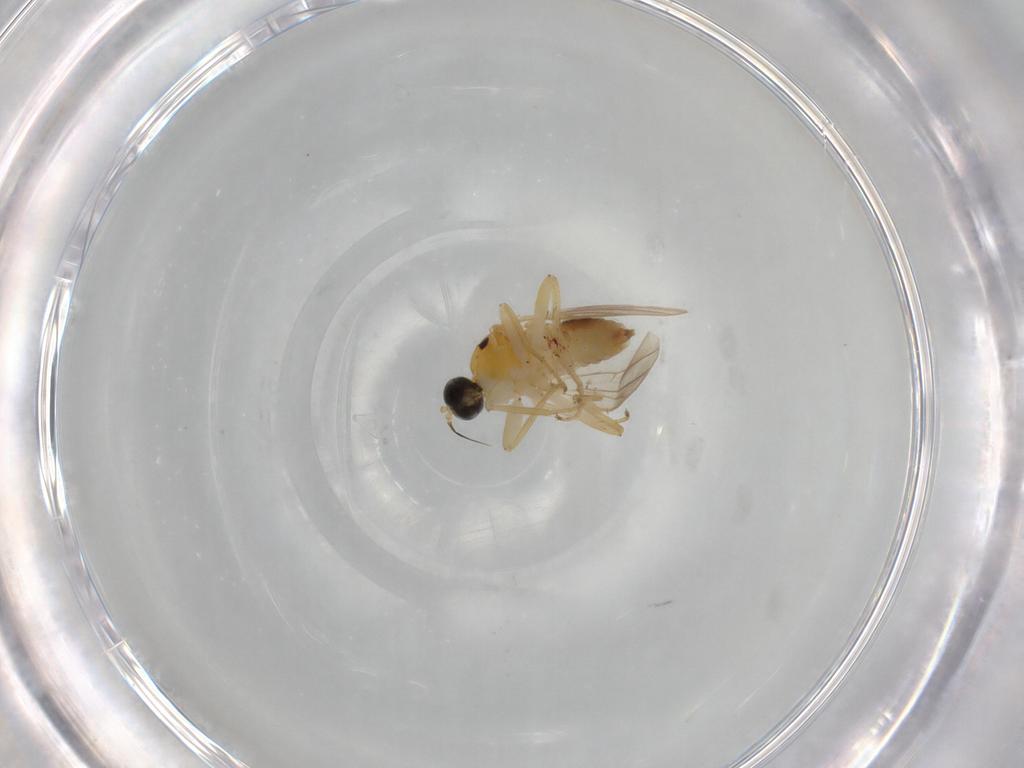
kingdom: Animalia
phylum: Arthropoda
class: Insecta
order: Diptera
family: Hybotidae
